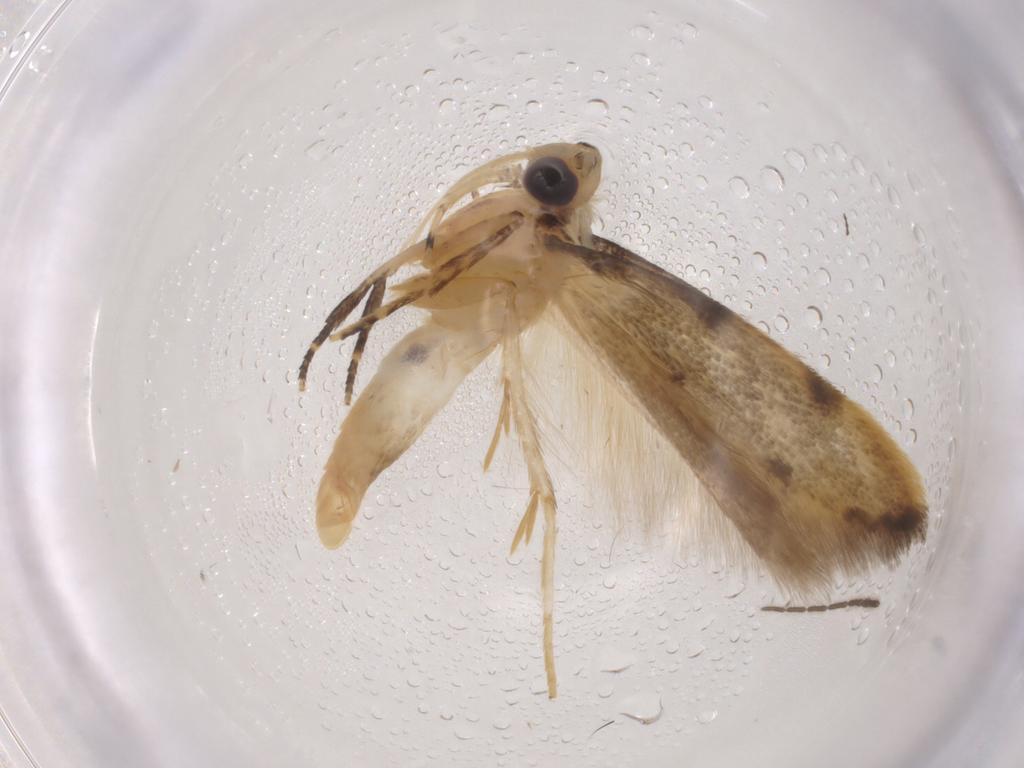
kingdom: Animalia
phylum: Arthropoda
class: Insecta
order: Lepidoptera
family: Autostichidae
